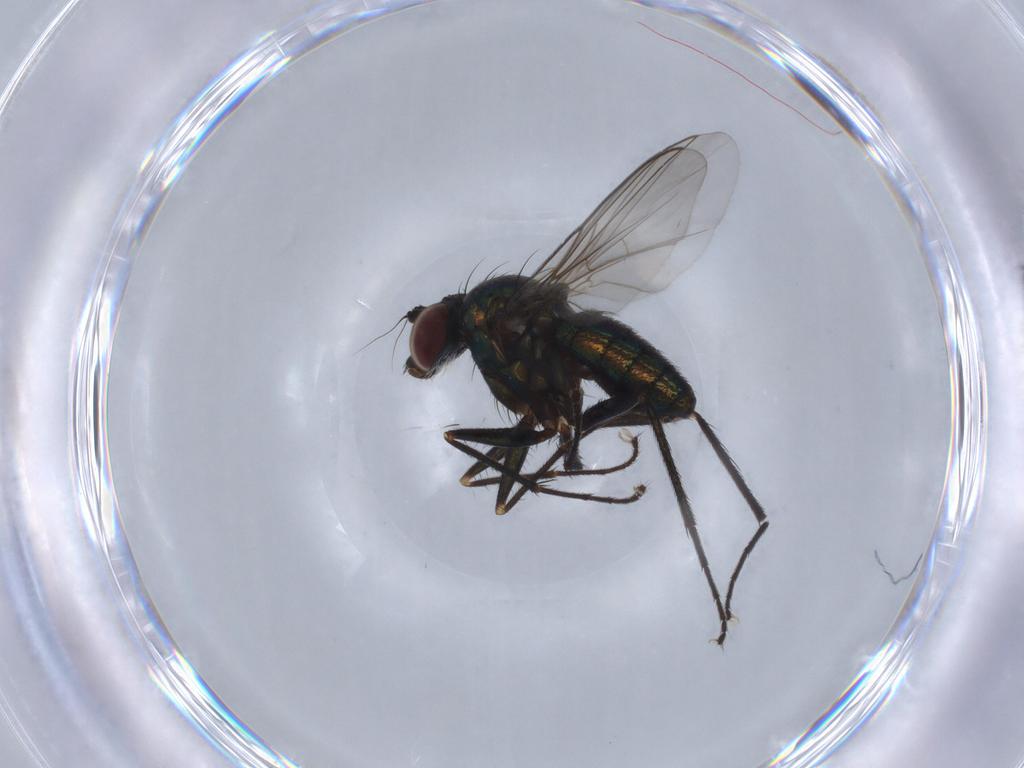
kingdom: Animalia
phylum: Arthropoda
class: Insecta
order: Diptera
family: Dolichopodidae
